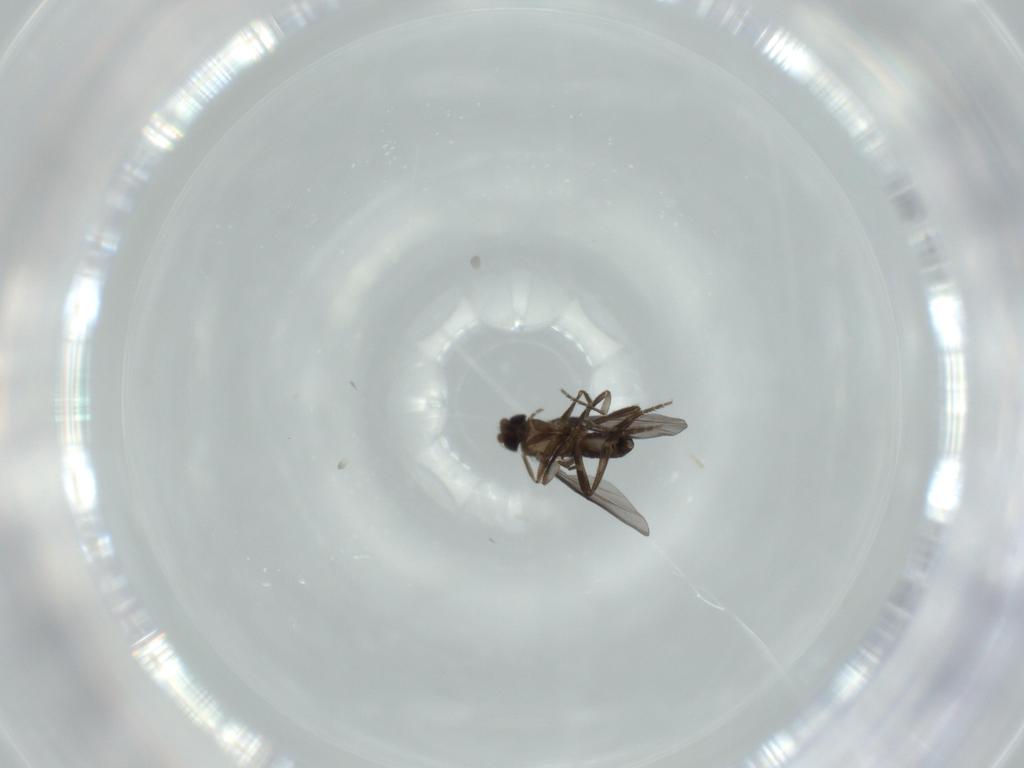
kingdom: Animalia
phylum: Arthropoda
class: Insecta
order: Diptera
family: Phoridae
